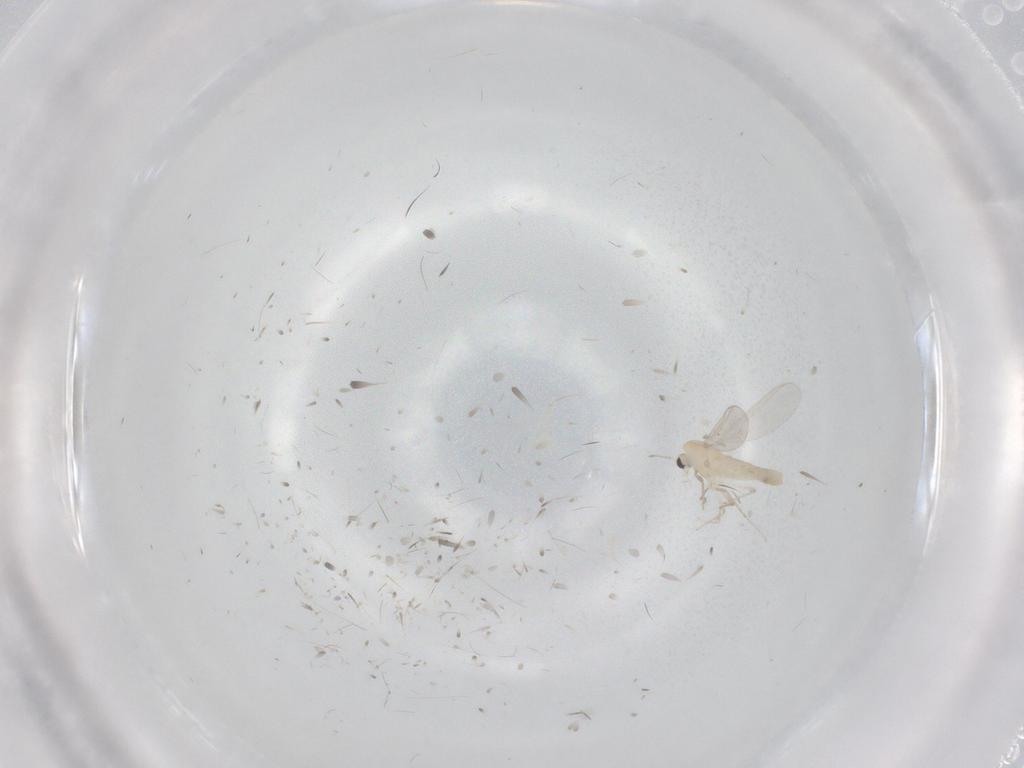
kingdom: Animalia
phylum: Arthropoda
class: Insecta
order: Diptera
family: Chironomidae
